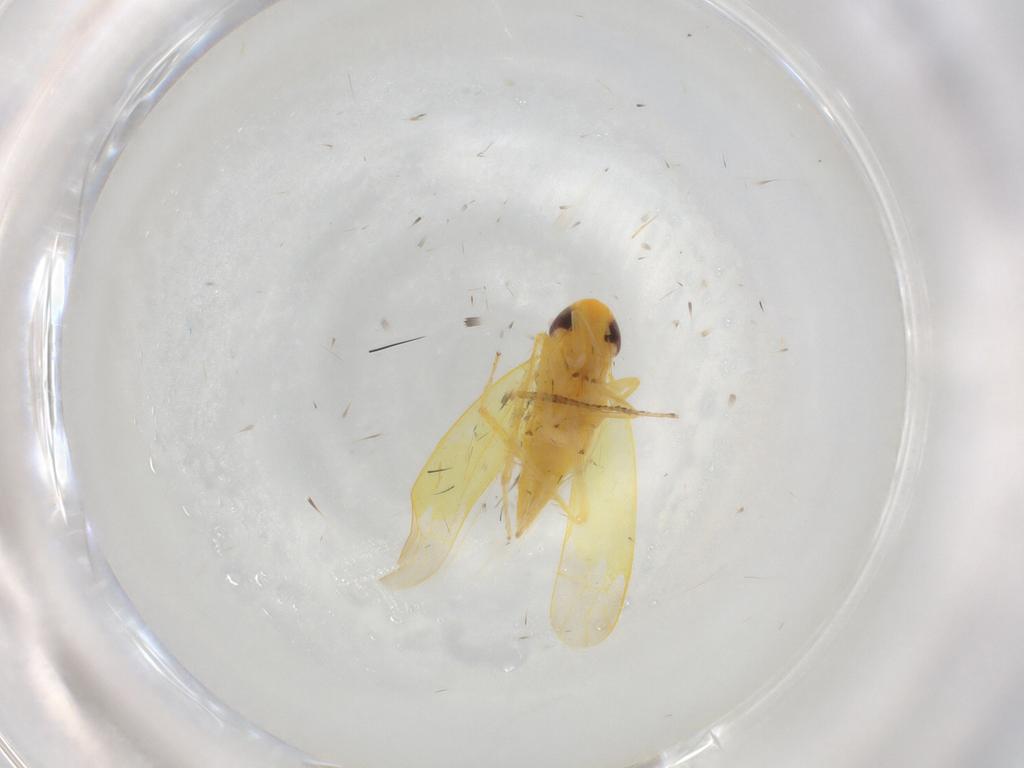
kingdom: Animalia
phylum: Arthropoda
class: Insecta
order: Hemiptera
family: Cicadellidae
